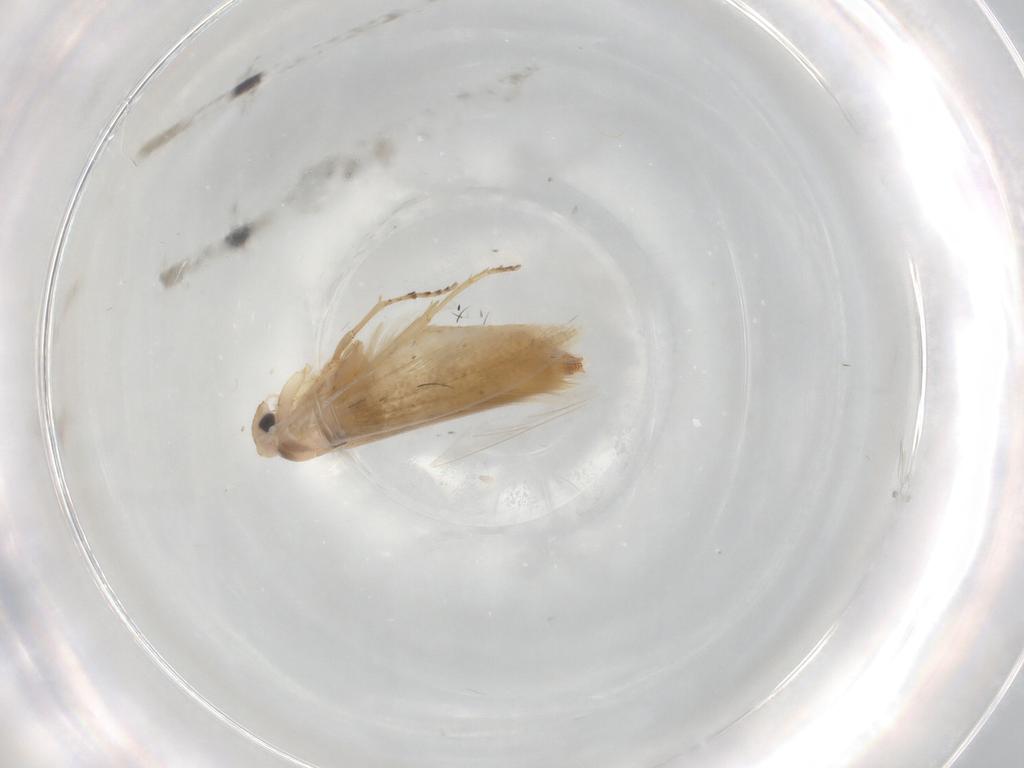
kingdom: Animalia
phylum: Arthropoda
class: Insecta
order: Lepidoptera
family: Bucculatricidae
